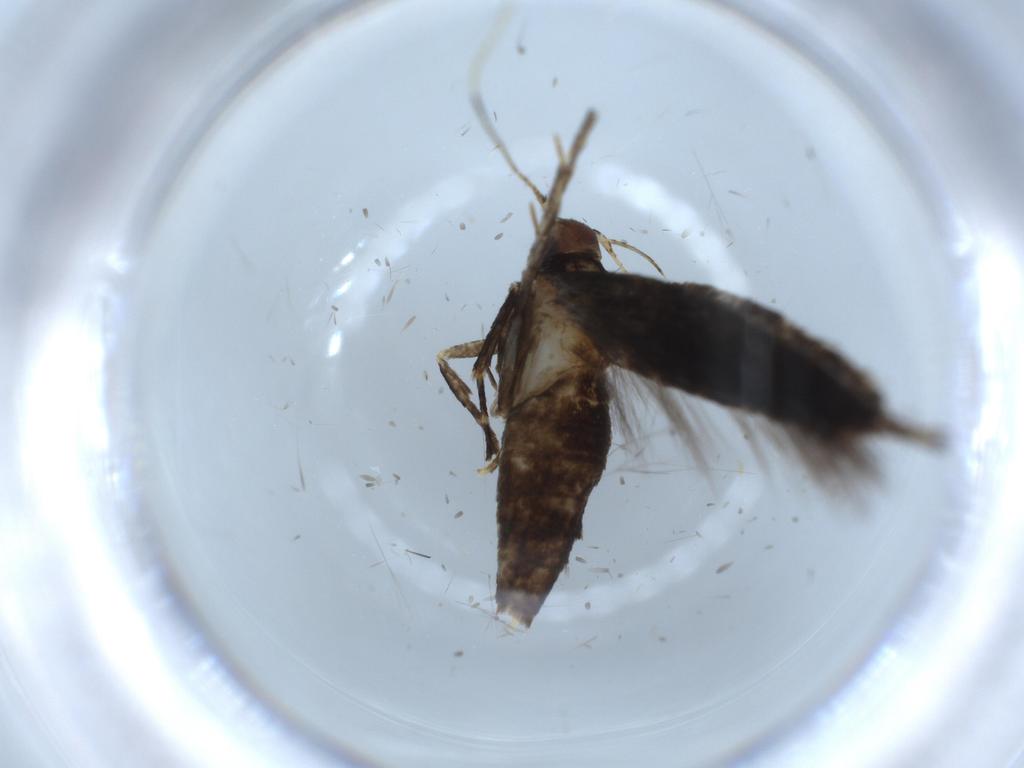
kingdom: Animalia
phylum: Arthropoda
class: Insecta
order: Lepidoptera
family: Cosmopterigidae
